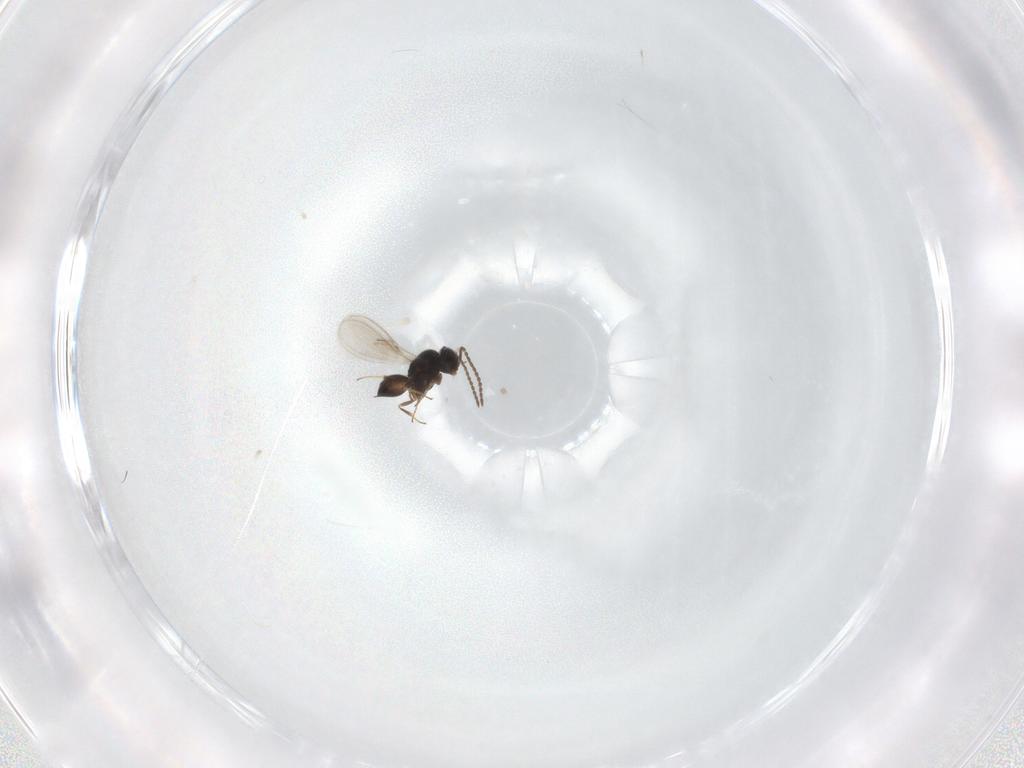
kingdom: Animalia
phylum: Arthropoda
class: Insecta
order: Hymenoptera
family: Scelionidae
